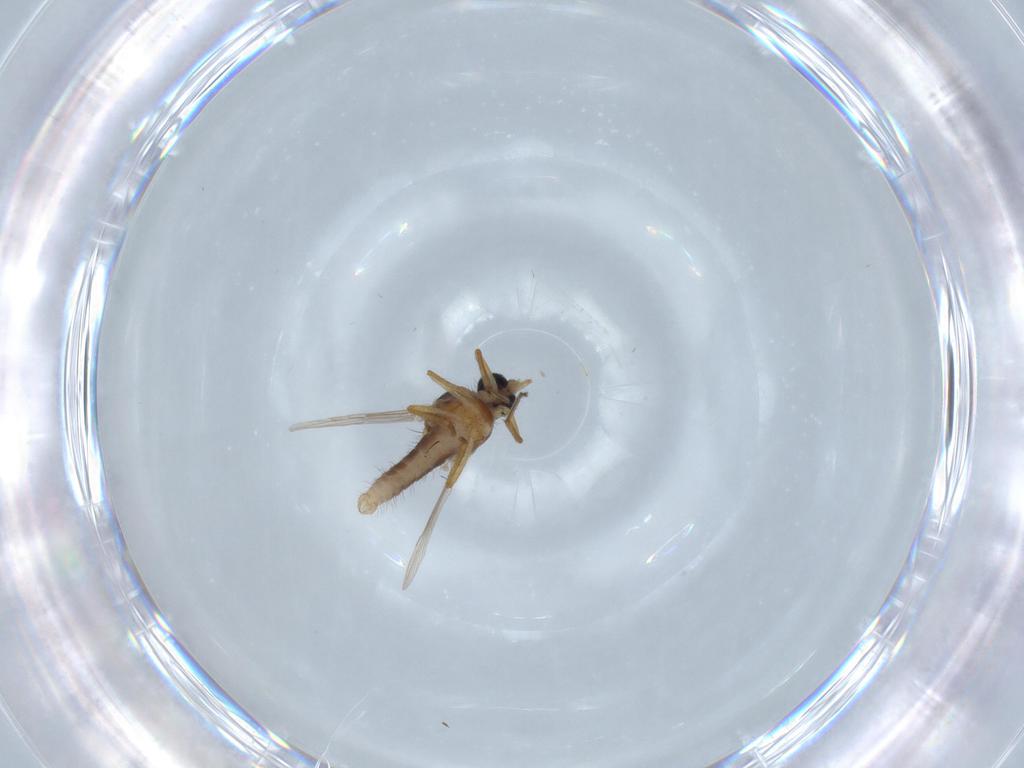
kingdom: Animalia
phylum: Arthropoda
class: Insecta
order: Diptera
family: Ceratopogonidae
